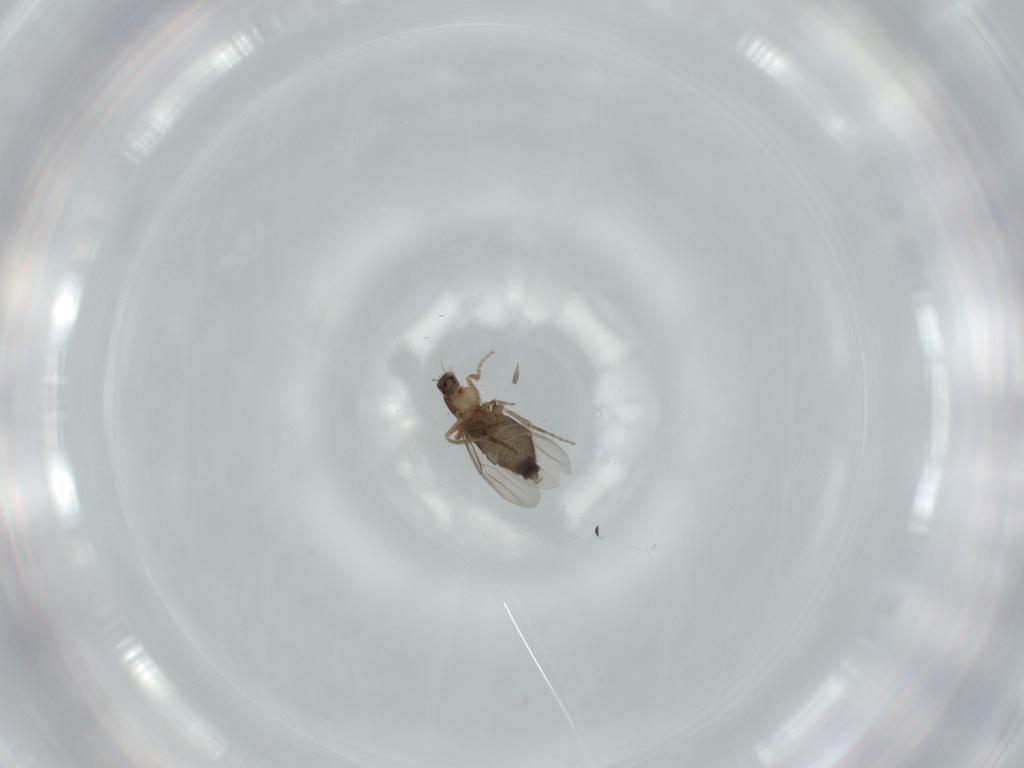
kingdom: Animalia
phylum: Arthropoda
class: Insecta
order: Diptera
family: Phoridae
